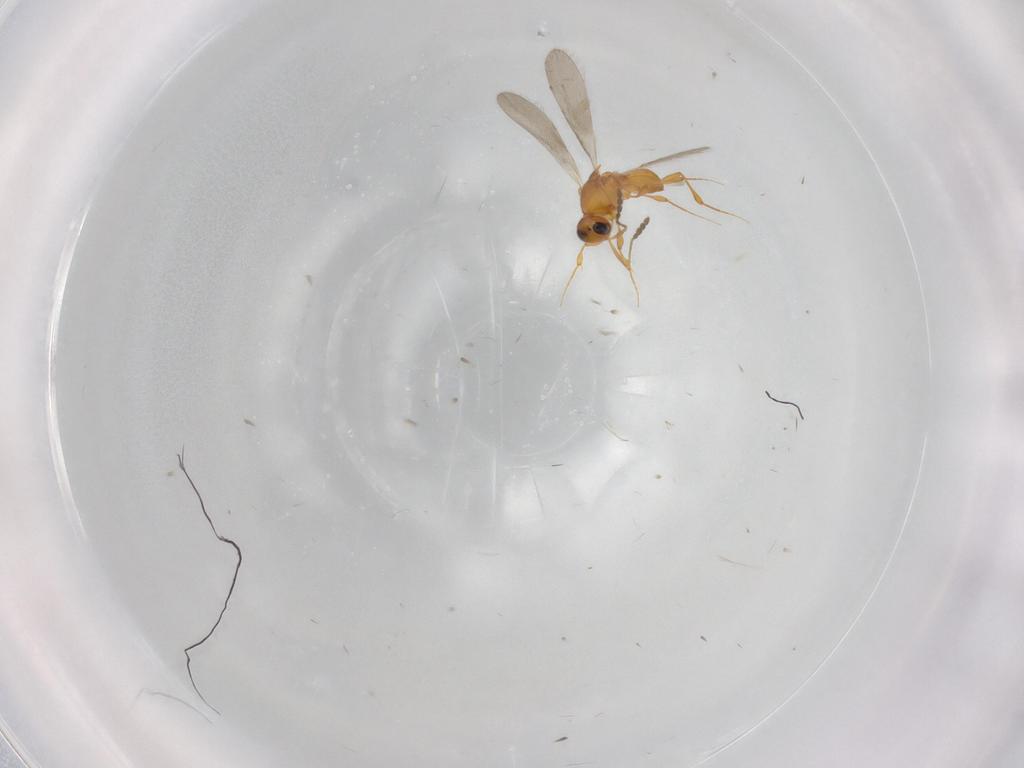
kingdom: Animalia
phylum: Arthropoda
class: Insecta
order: Hymenoptera
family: Platygastridae
